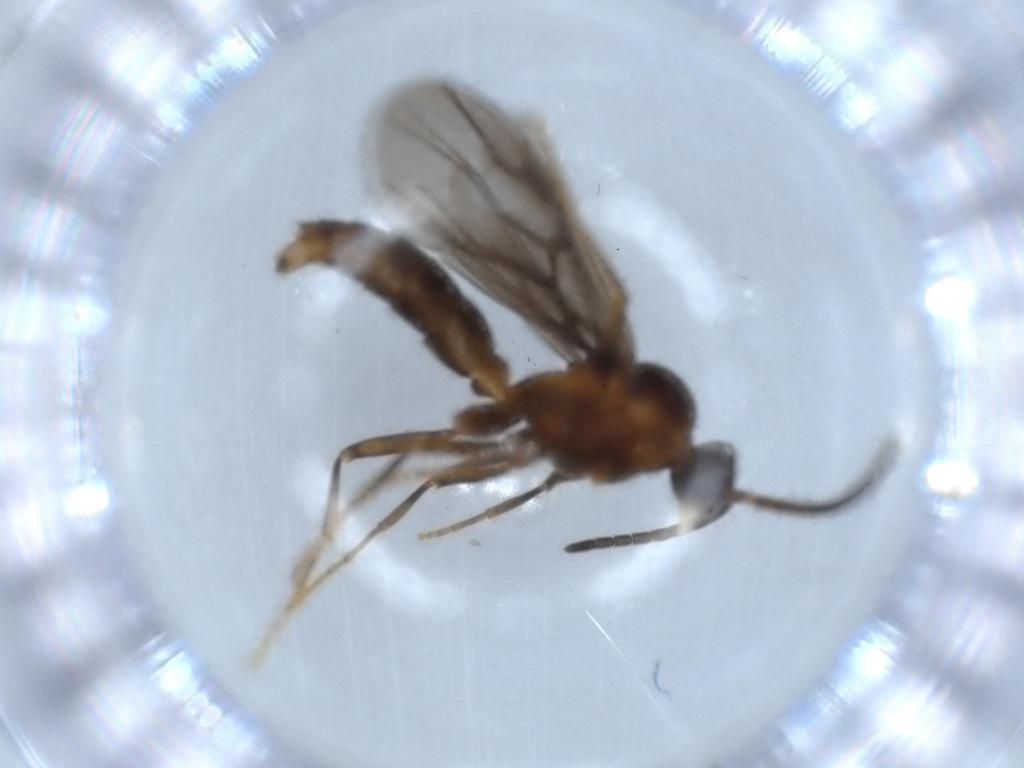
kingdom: Animalia
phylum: Arthropoda
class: Insecta
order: Hymenoptera
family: Formicidae
